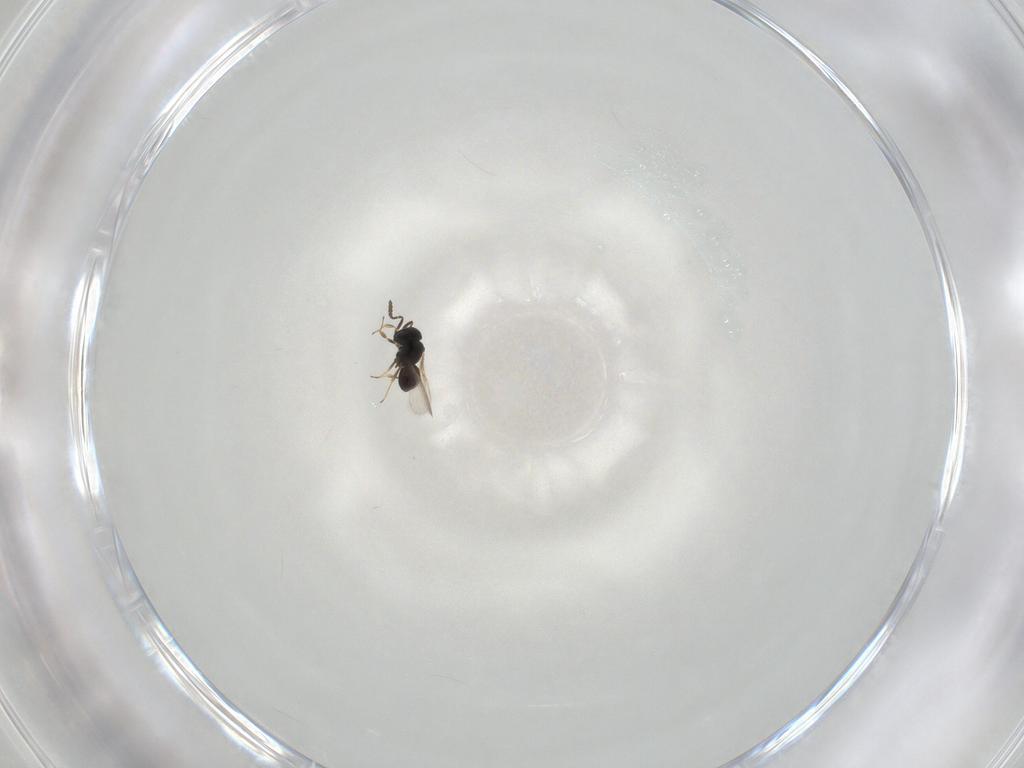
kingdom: Animalia
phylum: Arthropoda
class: Insecta
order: Hymenoptera
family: Scelionidae
